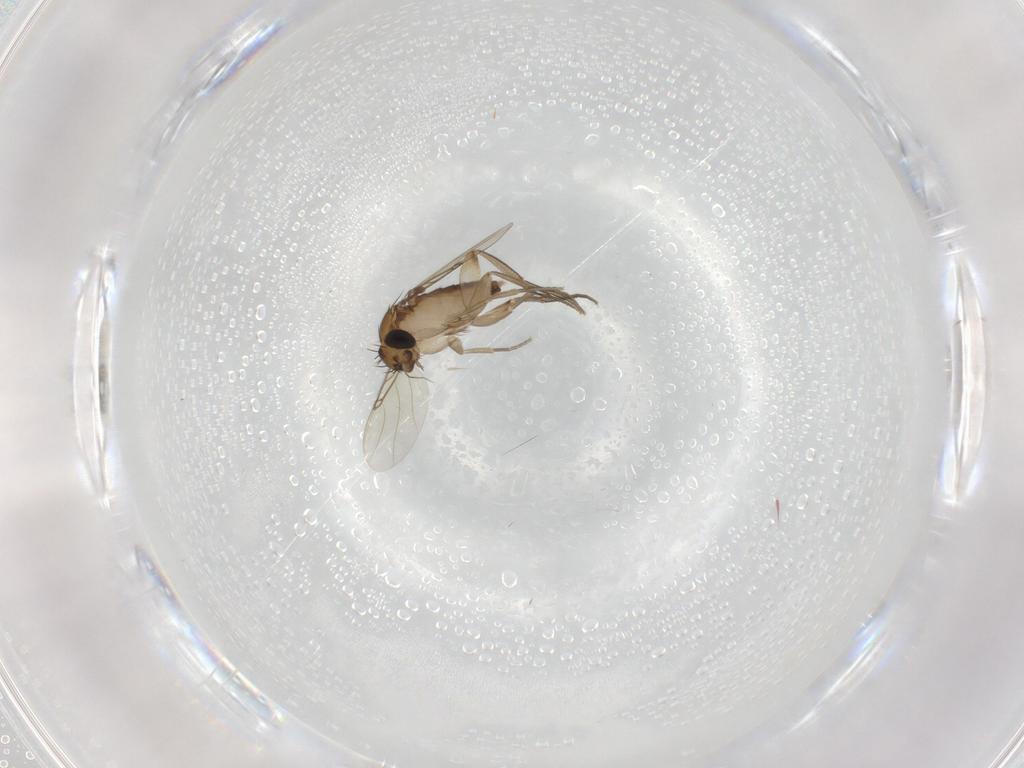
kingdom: Animalia
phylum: Arthropoda
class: Insecta
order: Diptera
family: Phoridae
